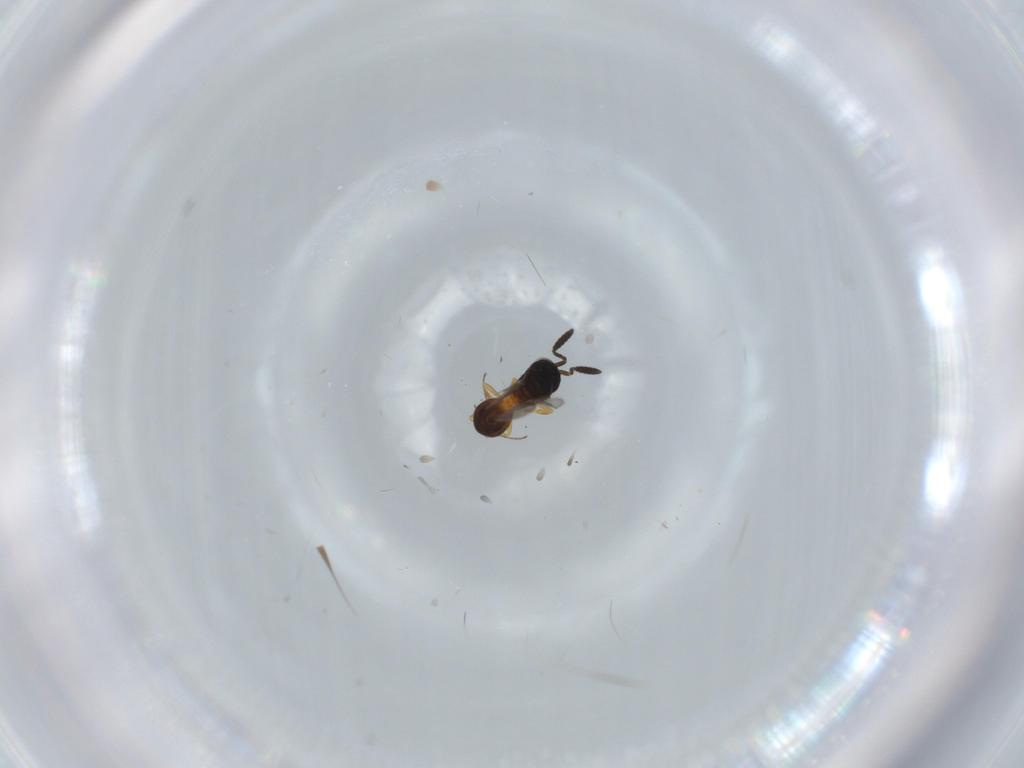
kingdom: Animalia
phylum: Arthropoda
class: Insecta
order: Hymenoptera
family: Scelionidae
